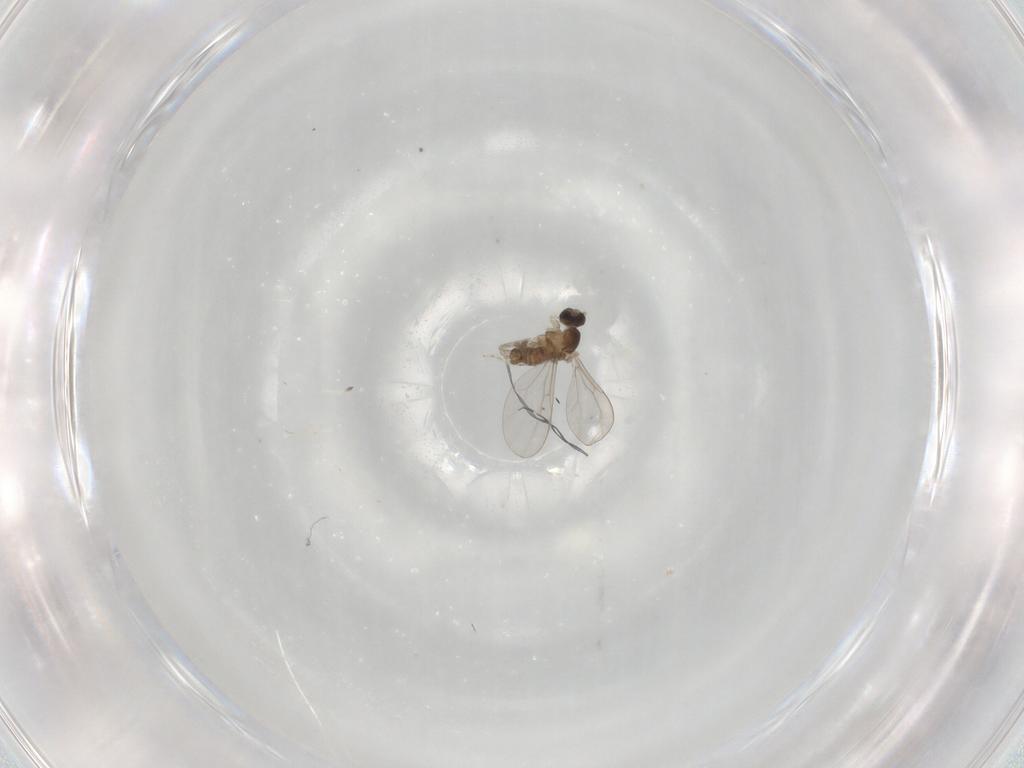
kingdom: Animalia
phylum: Arthropoda
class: Insecta
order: Diptera
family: Cecidomyiidae
